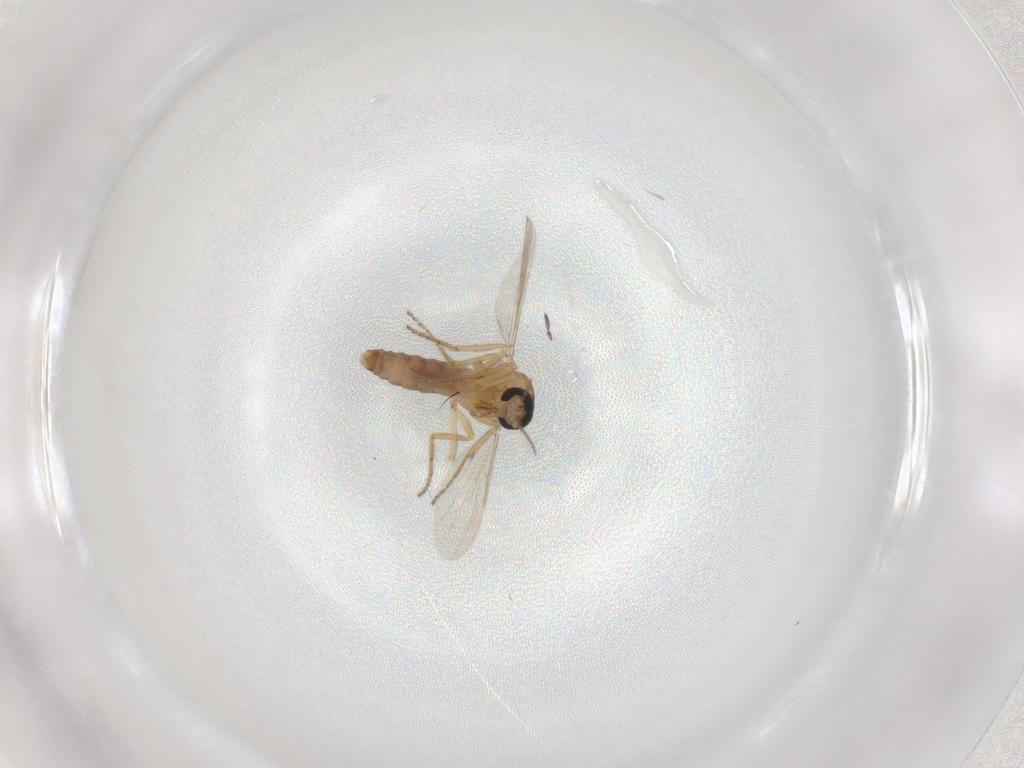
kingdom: Animalia
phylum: Arthropoda
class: Insecta
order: Diptera
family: Ceratopogonidae
